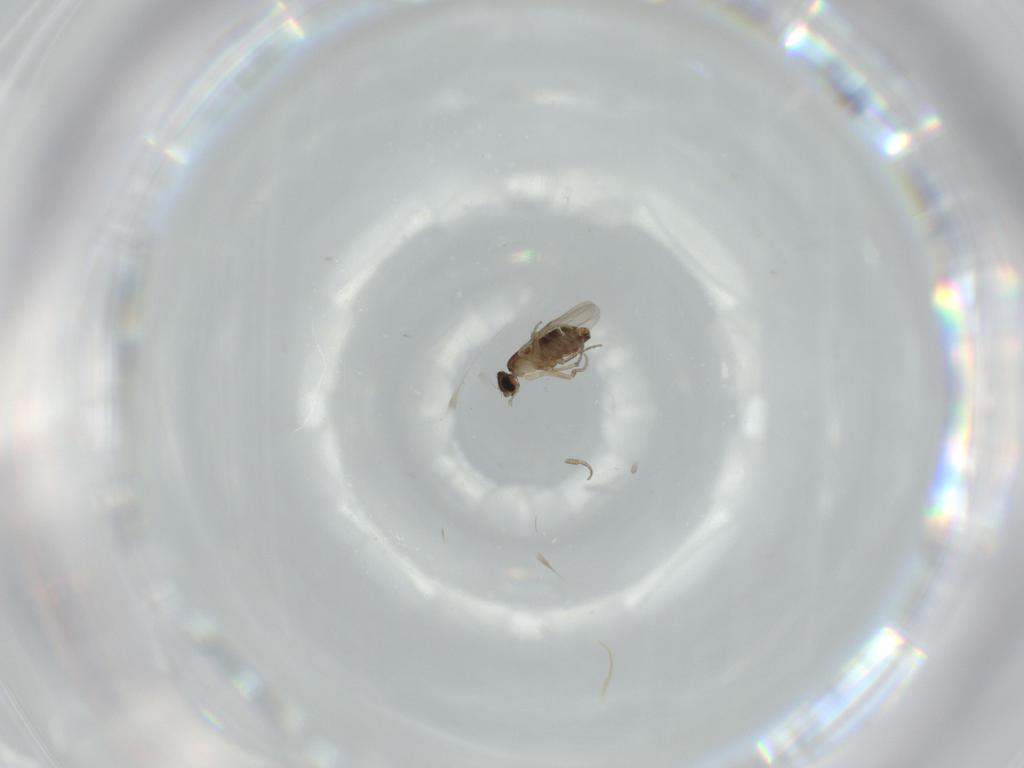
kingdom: Animalia
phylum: Arthropoda
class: Insecta
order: Diptera
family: Phoridae
